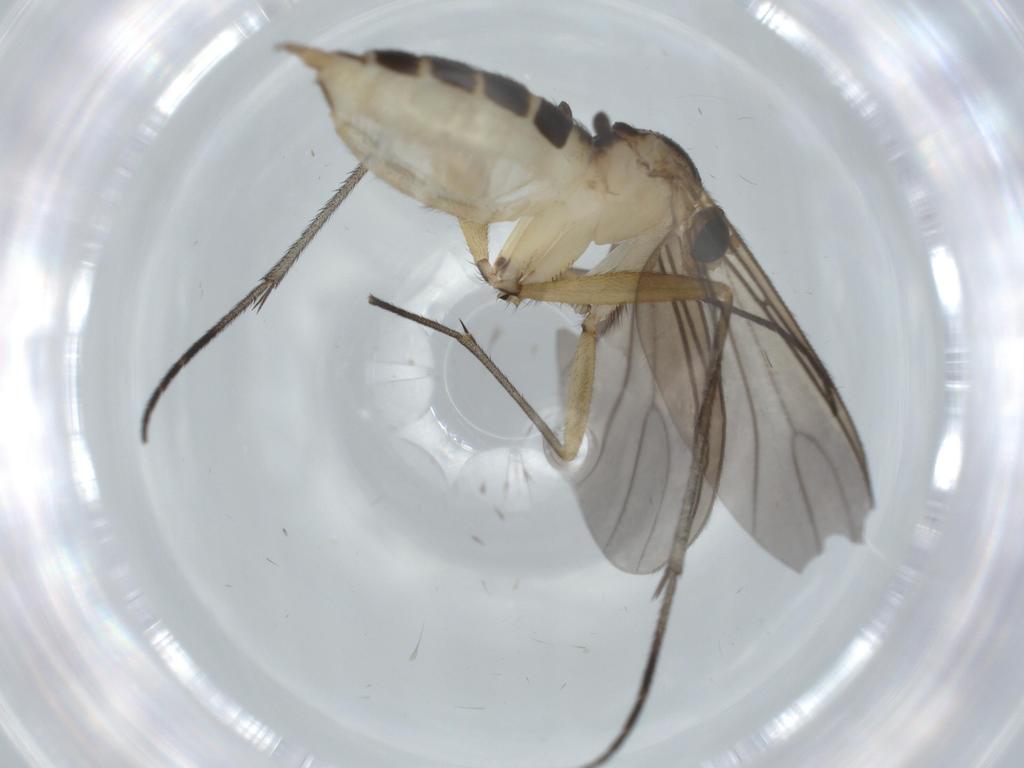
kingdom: Animalia
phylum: Arthropoda
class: Insecta
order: Diptera
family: Sciaridae
